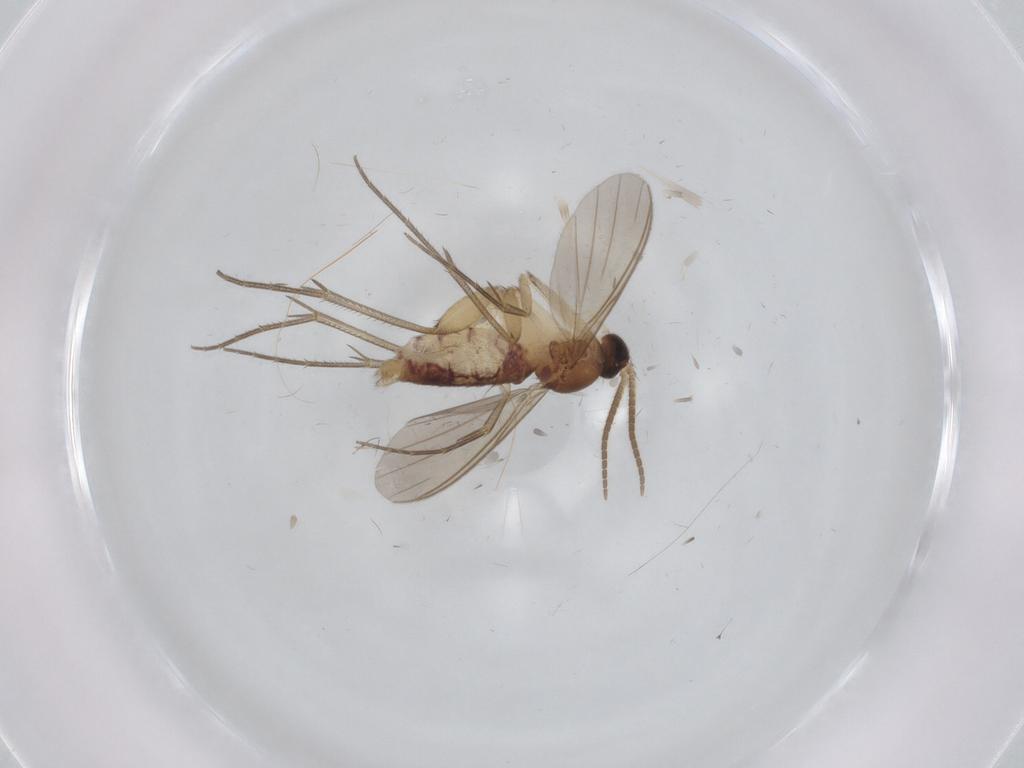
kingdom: Animalia
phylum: Arthropoda
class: Insecta
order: Diptera
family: Mycetophilidae
